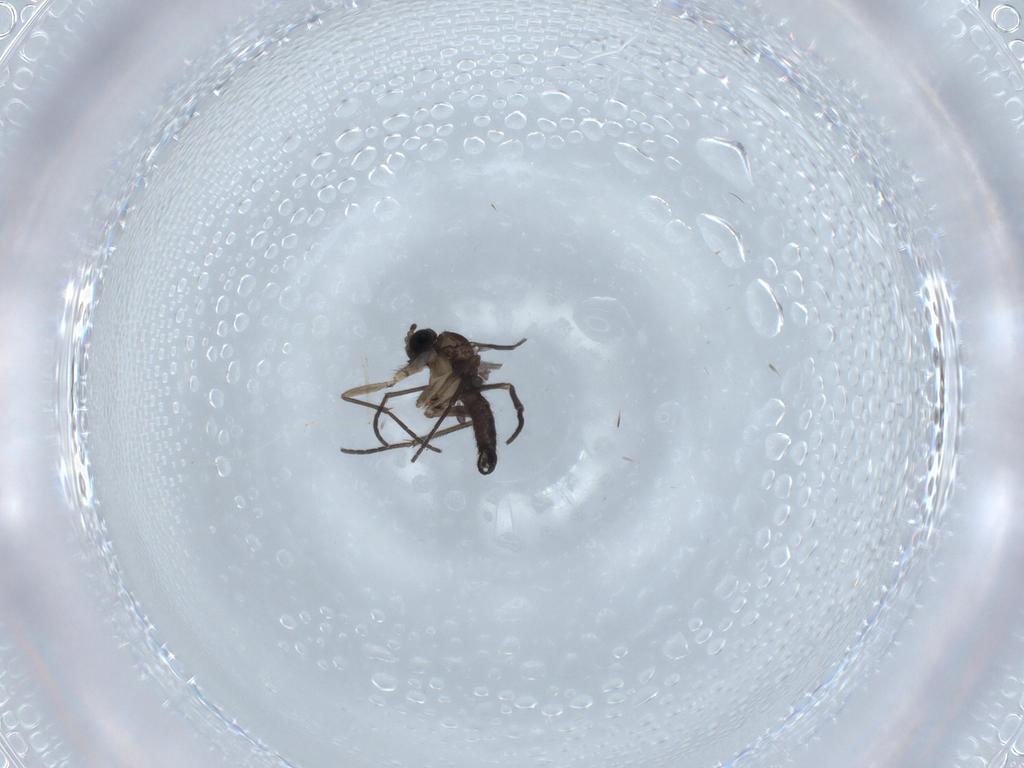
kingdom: Animalia
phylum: Arthropoda
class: Insecta
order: Diptera
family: Cecidomyiidae
